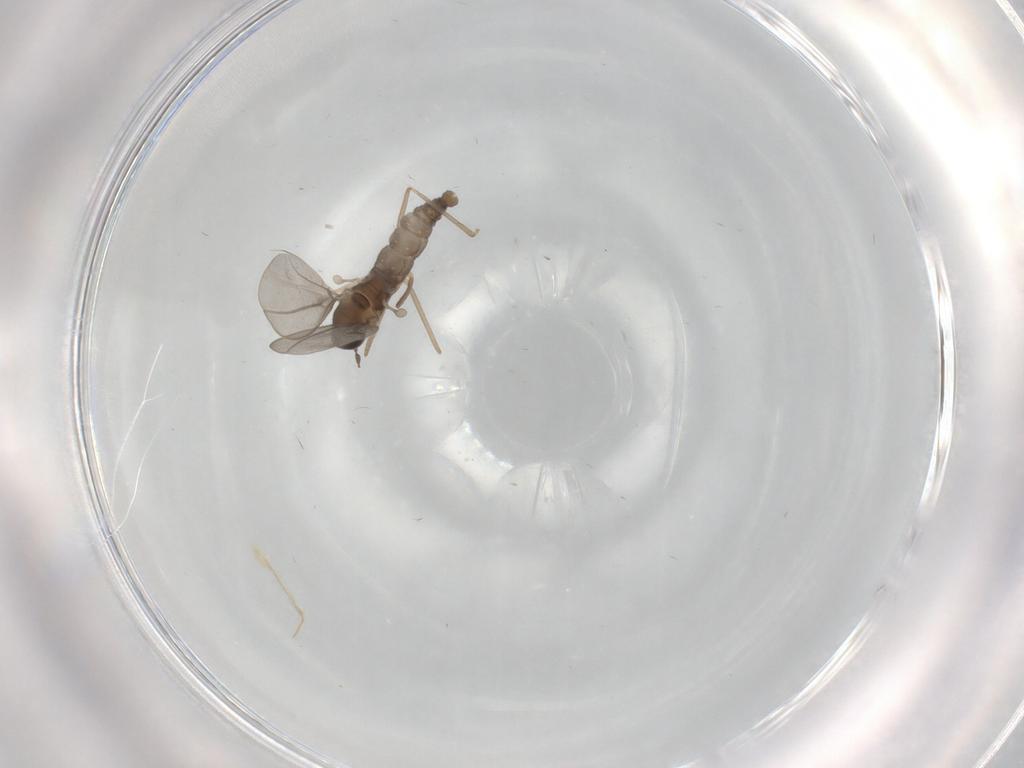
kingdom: Animalia
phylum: Arthropoda
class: Insecta
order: Diptera
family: Cecidomyiidae
